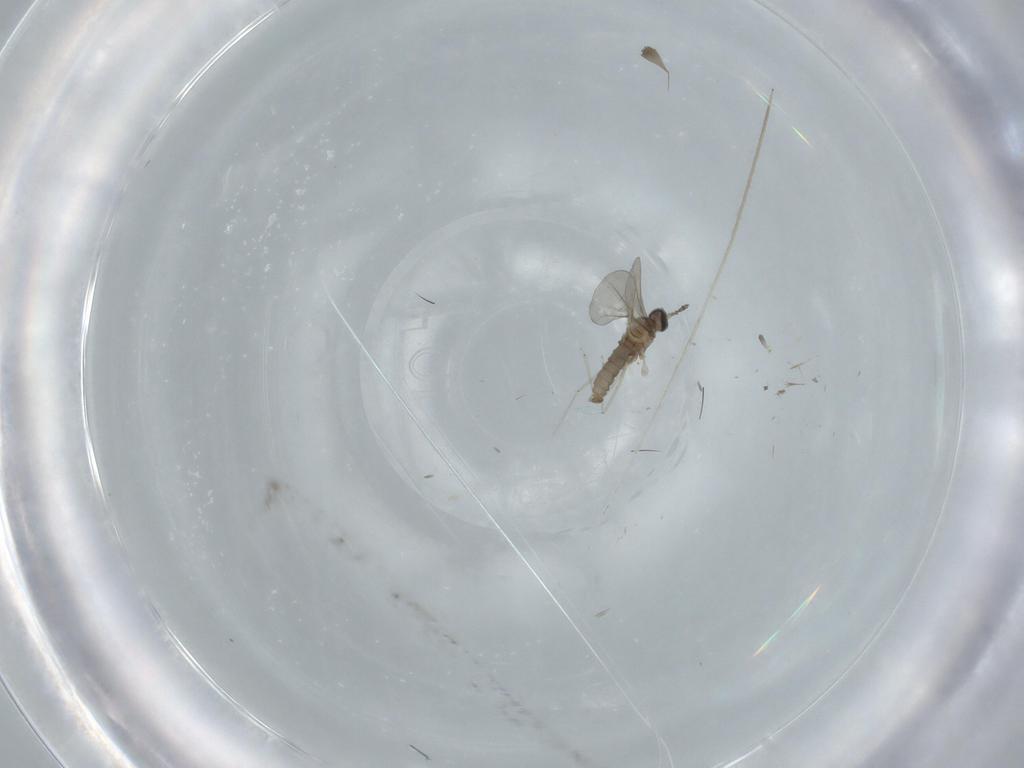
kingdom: Animalia
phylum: Arthropoda
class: Insecta
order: Diptera
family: Cecidomyiidae
